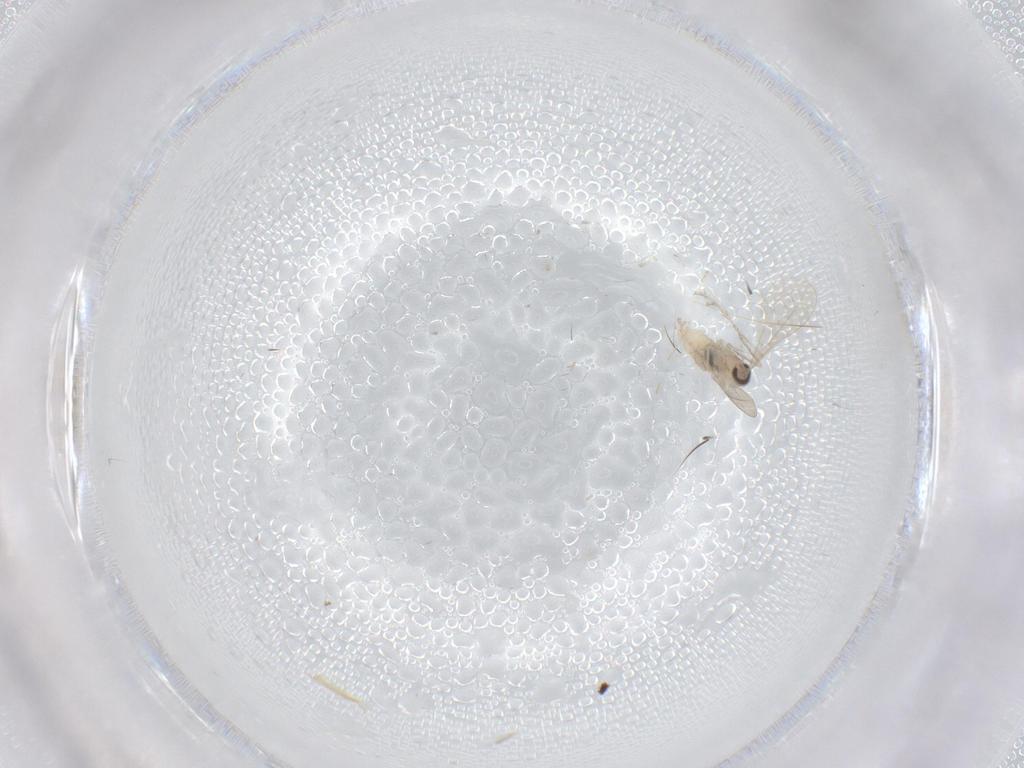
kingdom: Animalia
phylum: Arthropoda
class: Insecta
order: Diptera
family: Cecidomyiidae
